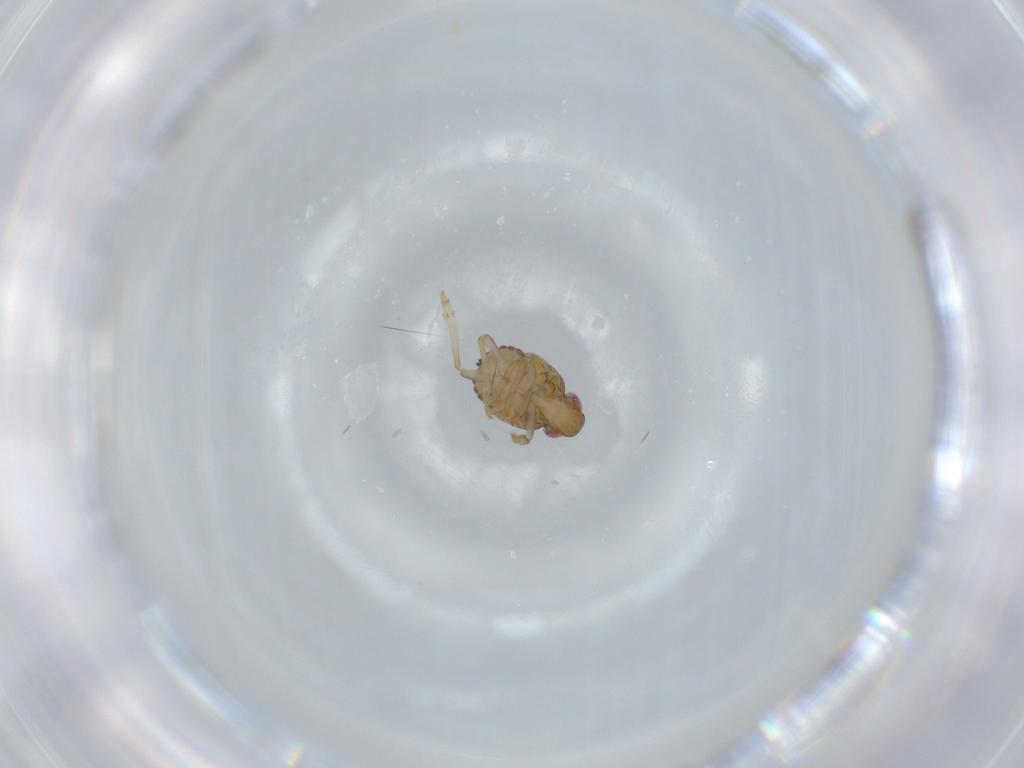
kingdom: Animalia
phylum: Arthropoda
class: Insecta
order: Hemiptera
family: Issidae
